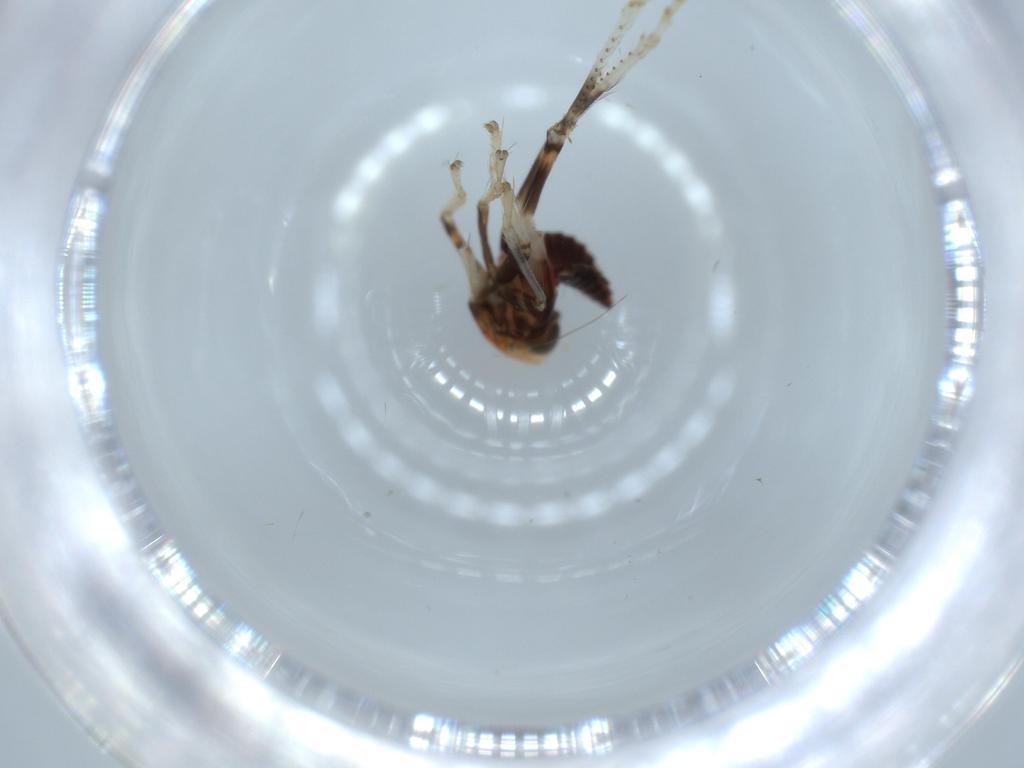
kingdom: Animalia
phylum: Arthropoda
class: Insecta
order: Hemiptera
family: Cicadellidae
